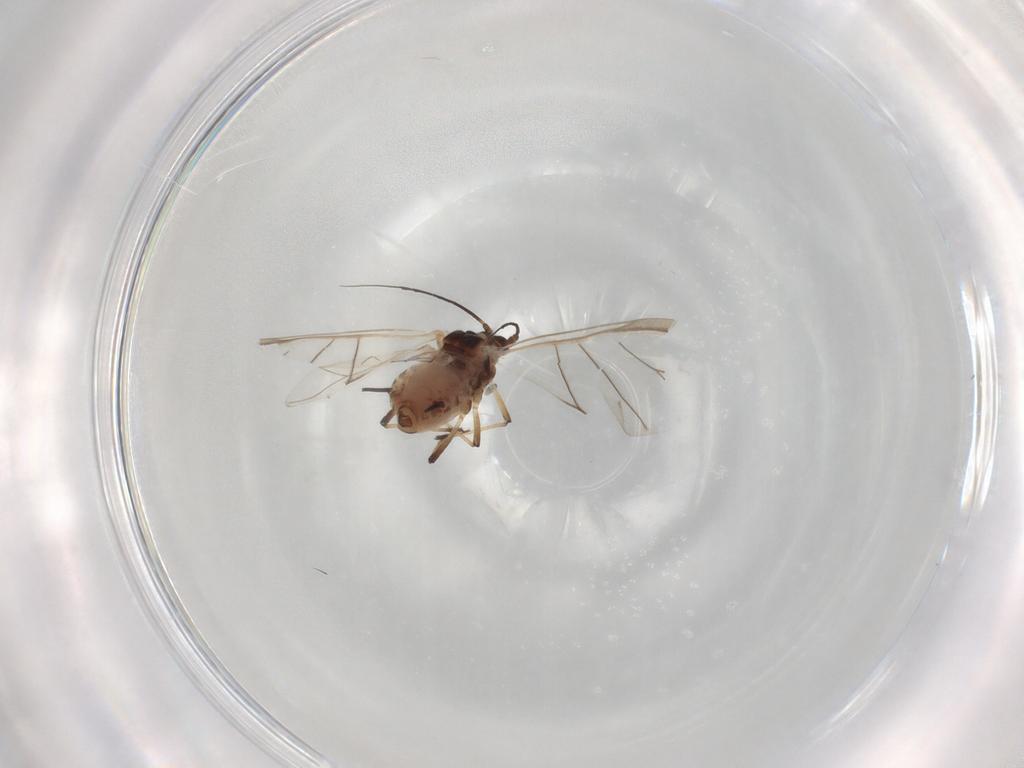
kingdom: Animalia
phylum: Arthropoda
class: Insecta
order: Hemiptera
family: Aphididae
